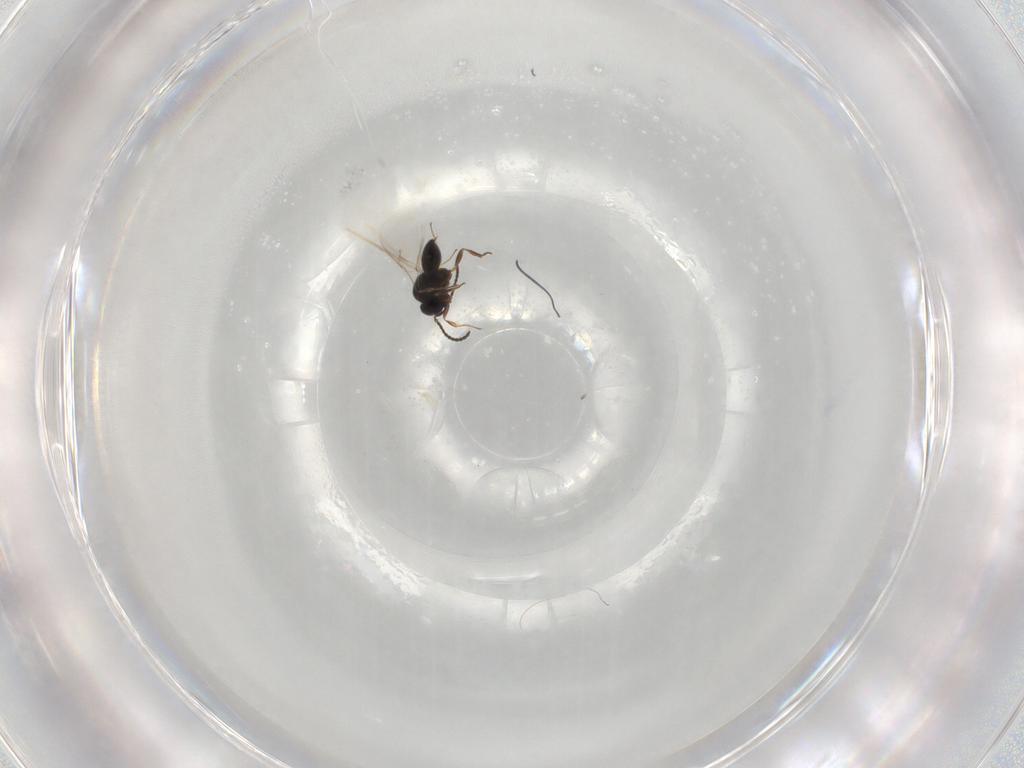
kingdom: Animalia
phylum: Arthropoda
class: Insecta
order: Hymenoptera
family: Scelionidae
